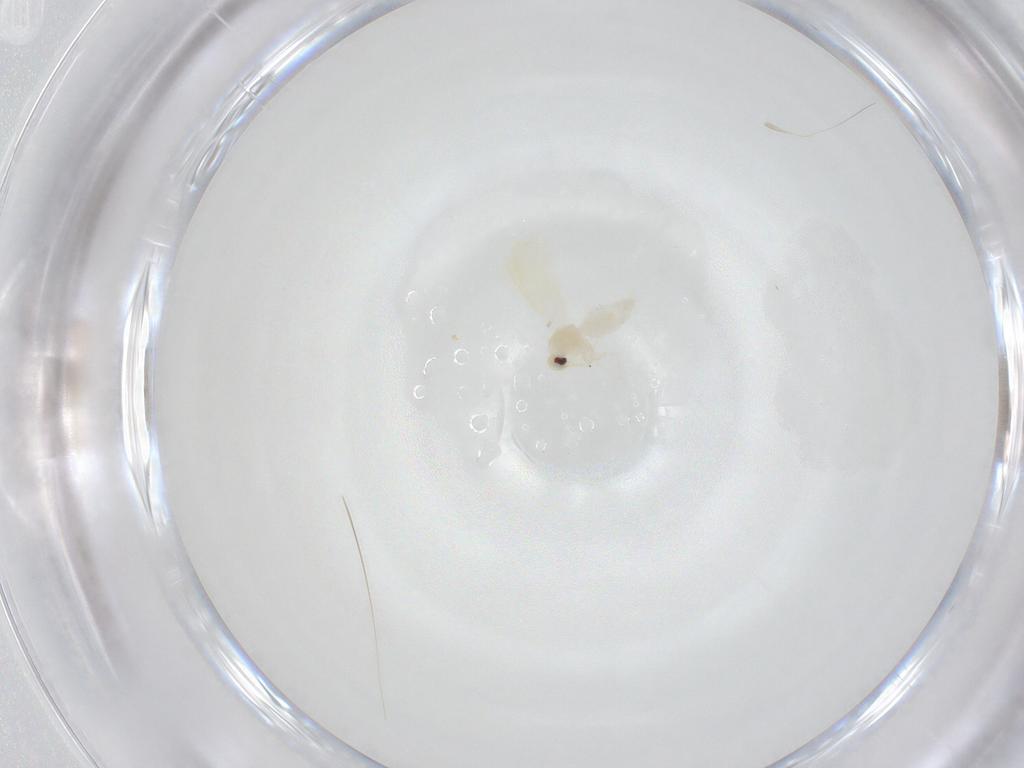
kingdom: Animalia
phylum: Arthropoda
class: Insecta
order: Hemiptera
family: Issidae
